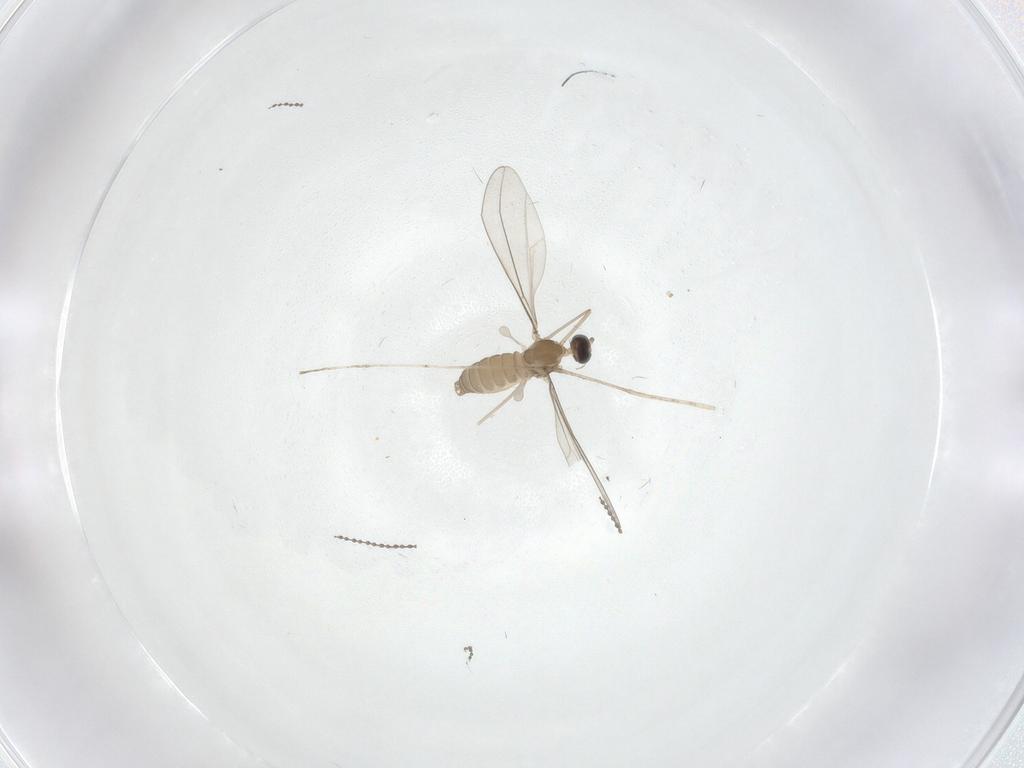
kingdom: Animalia
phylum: Arthropoda
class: Insecta
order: Diptera
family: Cecidomyiidae
